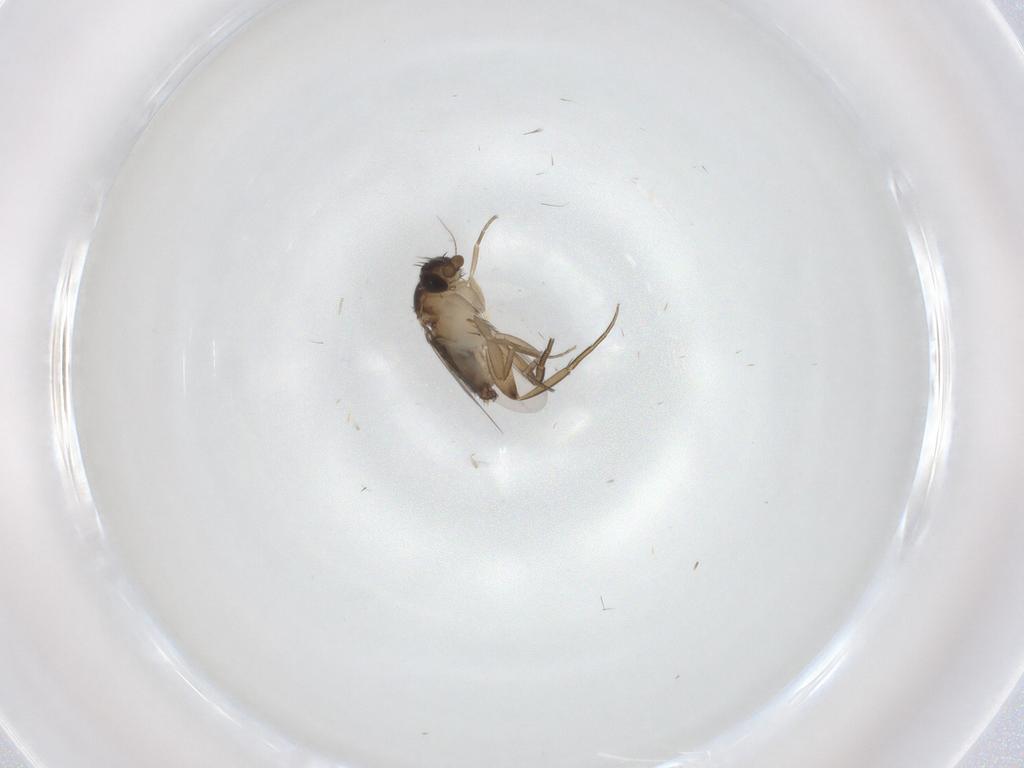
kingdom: Animalia
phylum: Arthropoda
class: Insecta
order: Diptera
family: Phoridae
